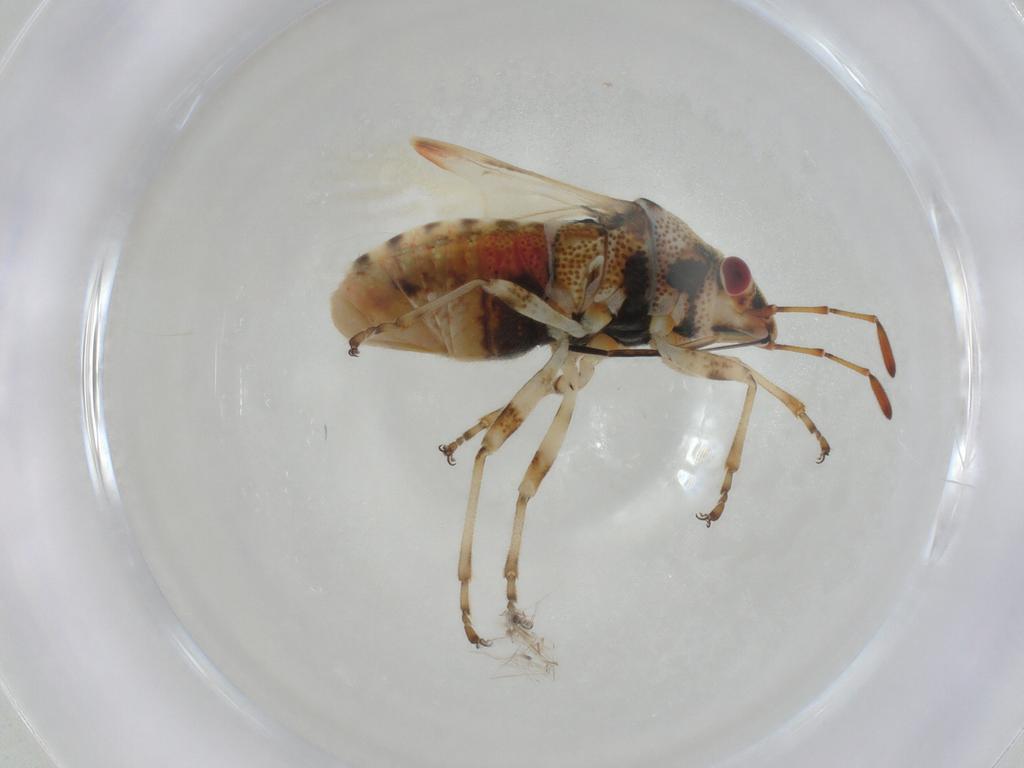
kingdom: Animalia
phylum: Arthropoda
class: Insecta
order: Hemiptera
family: Lygaeidae
